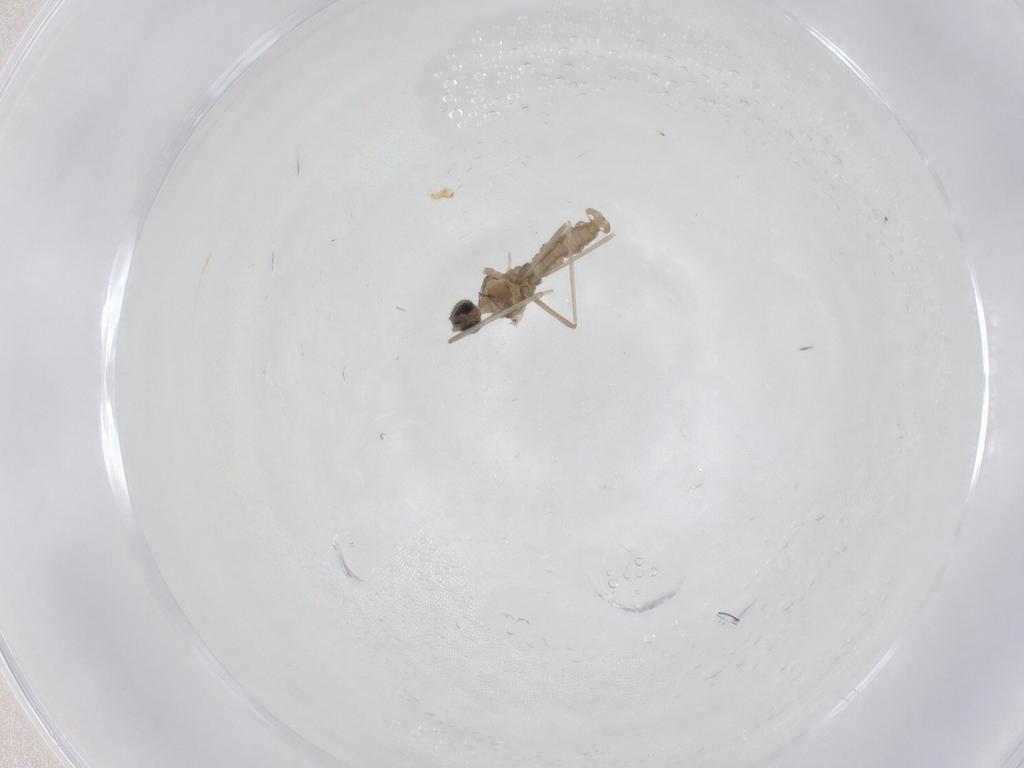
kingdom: Animalia
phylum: Arthropoda
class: Insecta
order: Diptera
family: Cecidomyiidae
